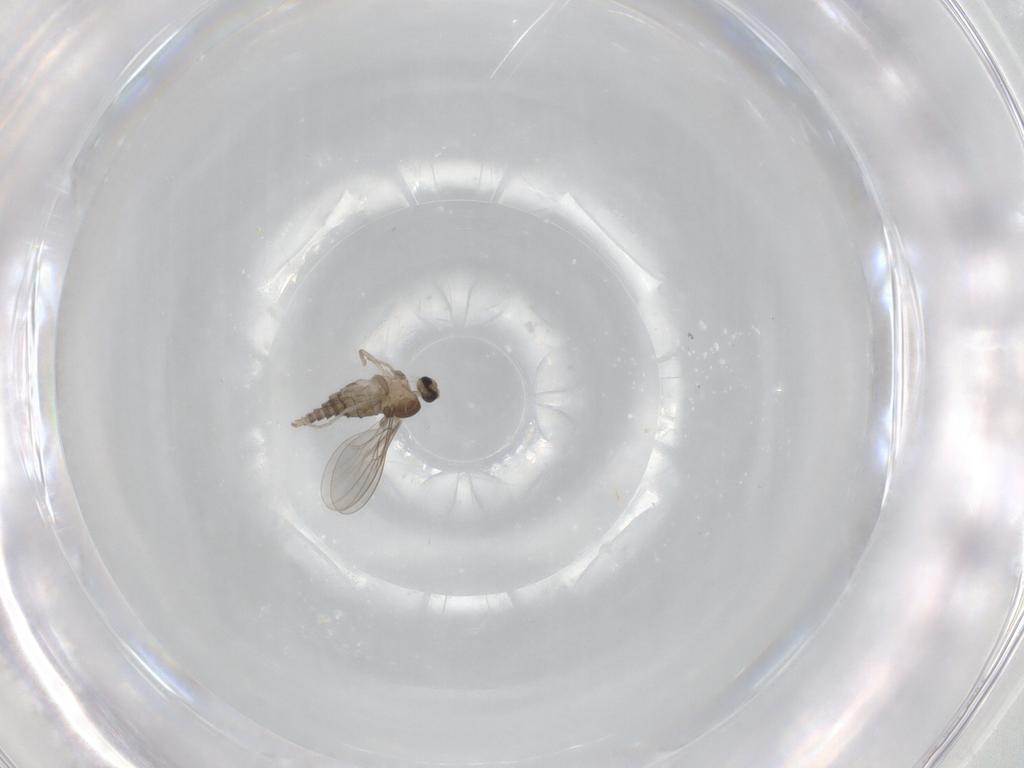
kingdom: Animalia
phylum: Arthropoda
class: Insecta
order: Diptera
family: Cecidomyiidae
